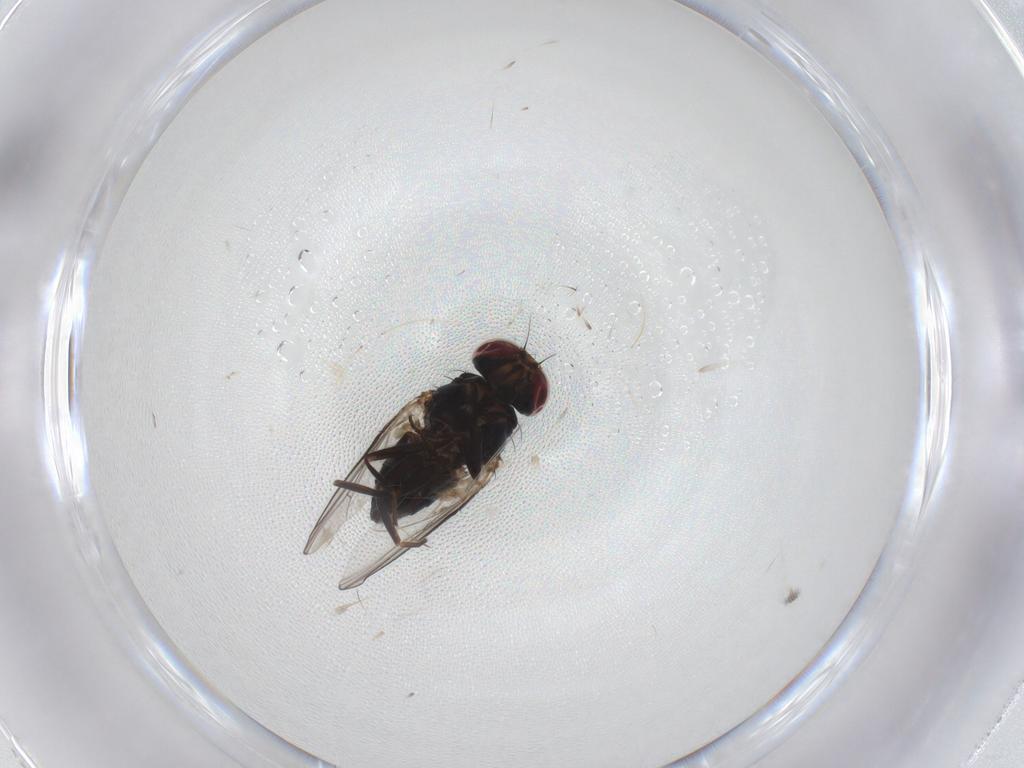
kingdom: Animalia
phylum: Arthropoda
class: Insecta
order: Diptera
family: Carnidae
